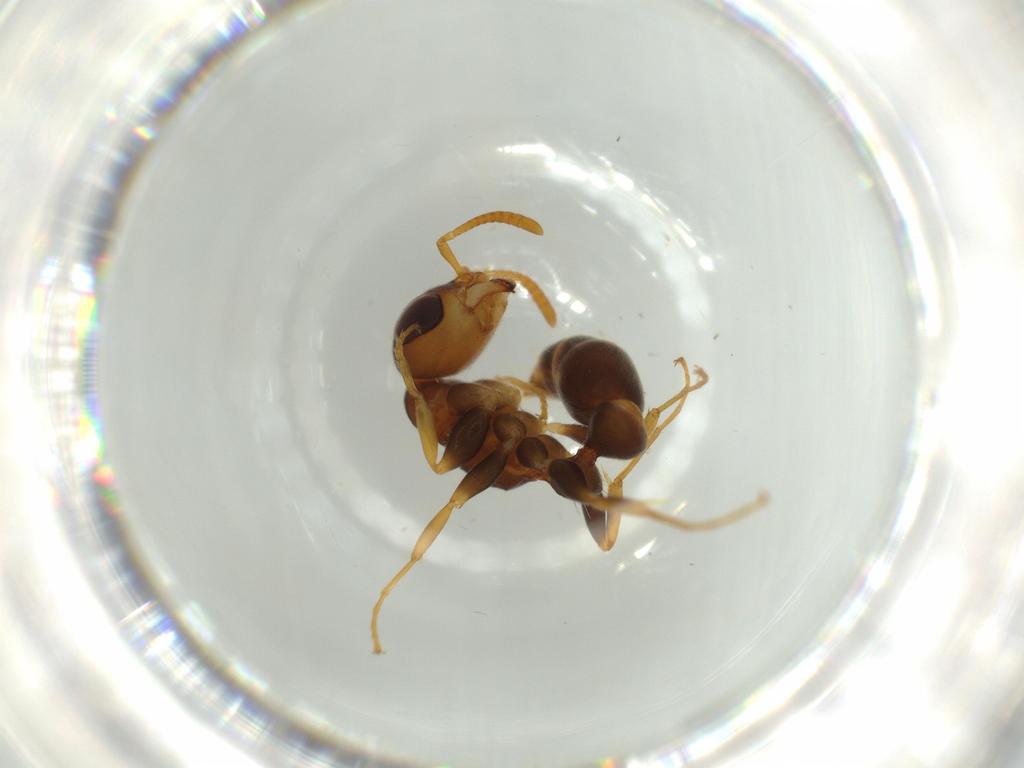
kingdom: Animalia
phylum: Arthropoda
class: Insecta
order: Hymenoptera
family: Formicidae
